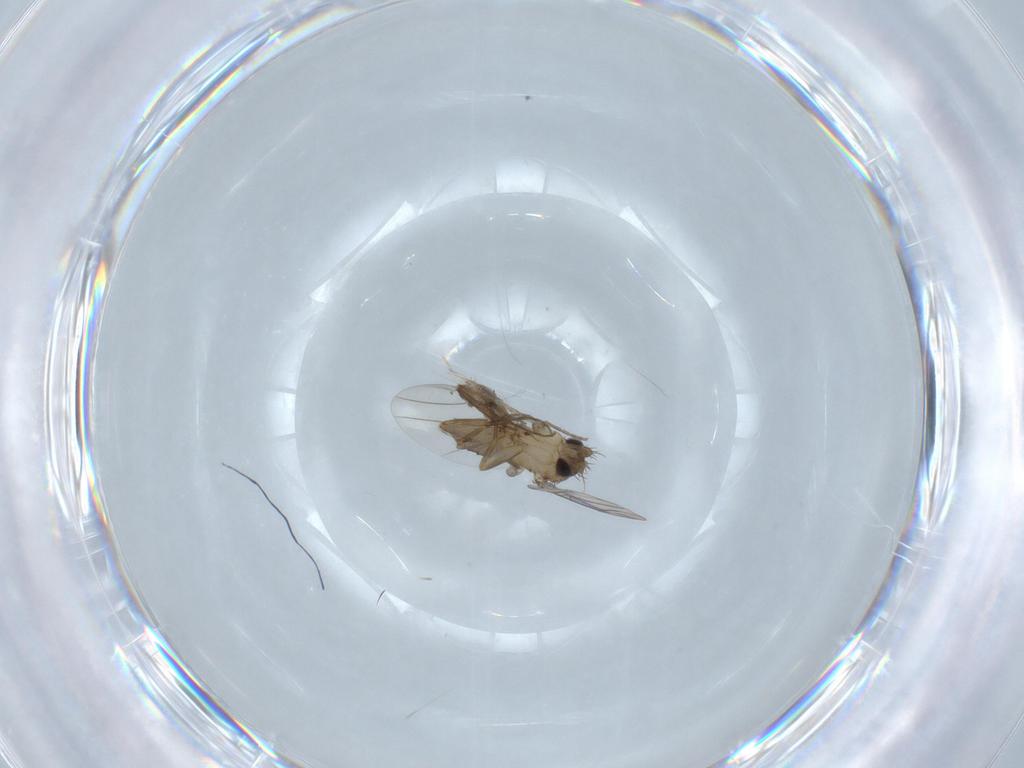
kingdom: Animalia
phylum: Arthropoda
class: Insecta
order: Diptera
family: Phoridae
